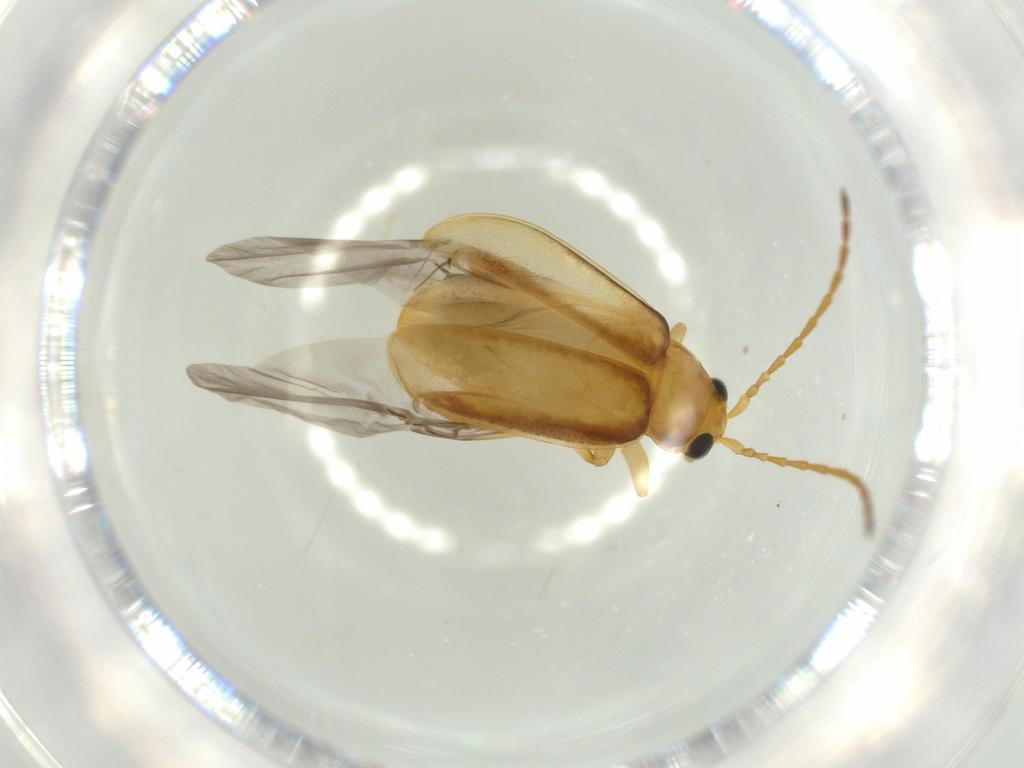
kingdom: Animalia
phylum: Arthropoda
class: Insecta
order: Coleoptera
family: Chrysomelidae
